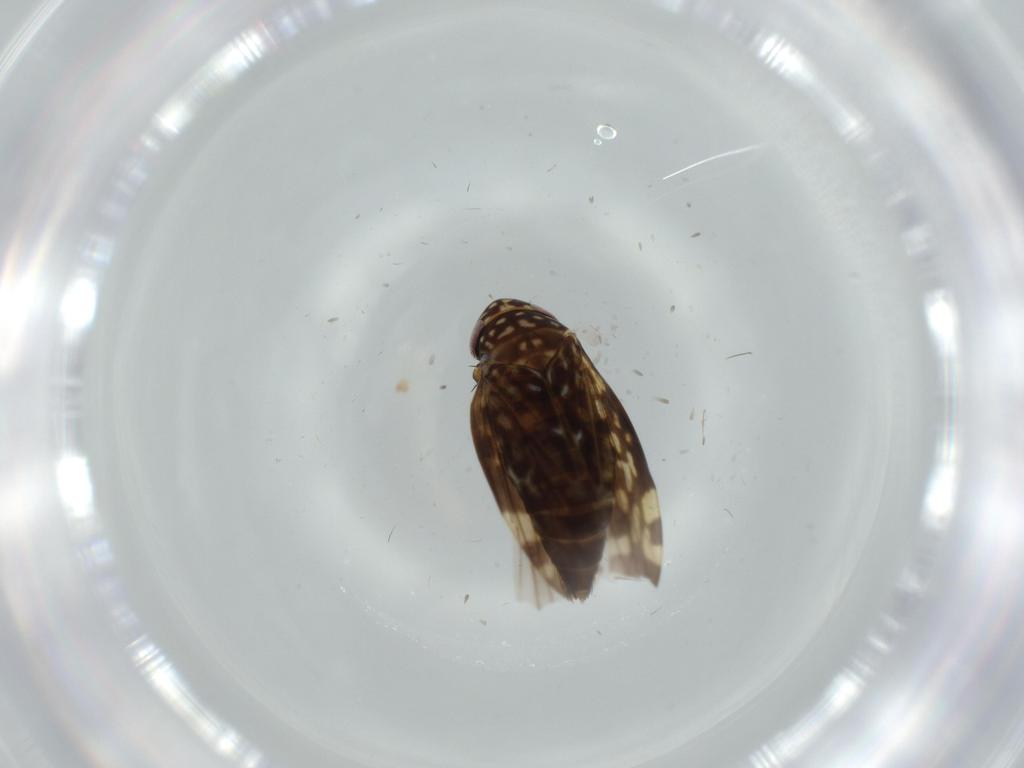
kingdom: Animalia
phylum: Arthropoda
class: Insecta
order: Hemiptera
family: Cicadellidae
